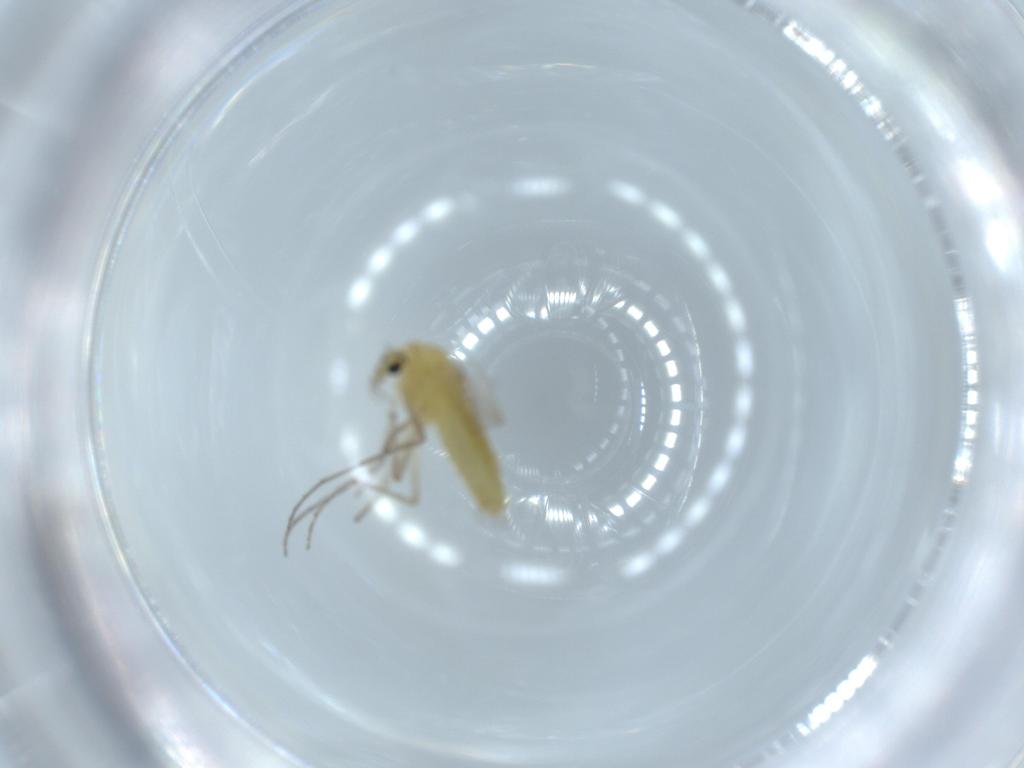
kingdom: Animalia
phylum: Arthropoda
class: Insecta
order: Diptera
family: Chironomidae
